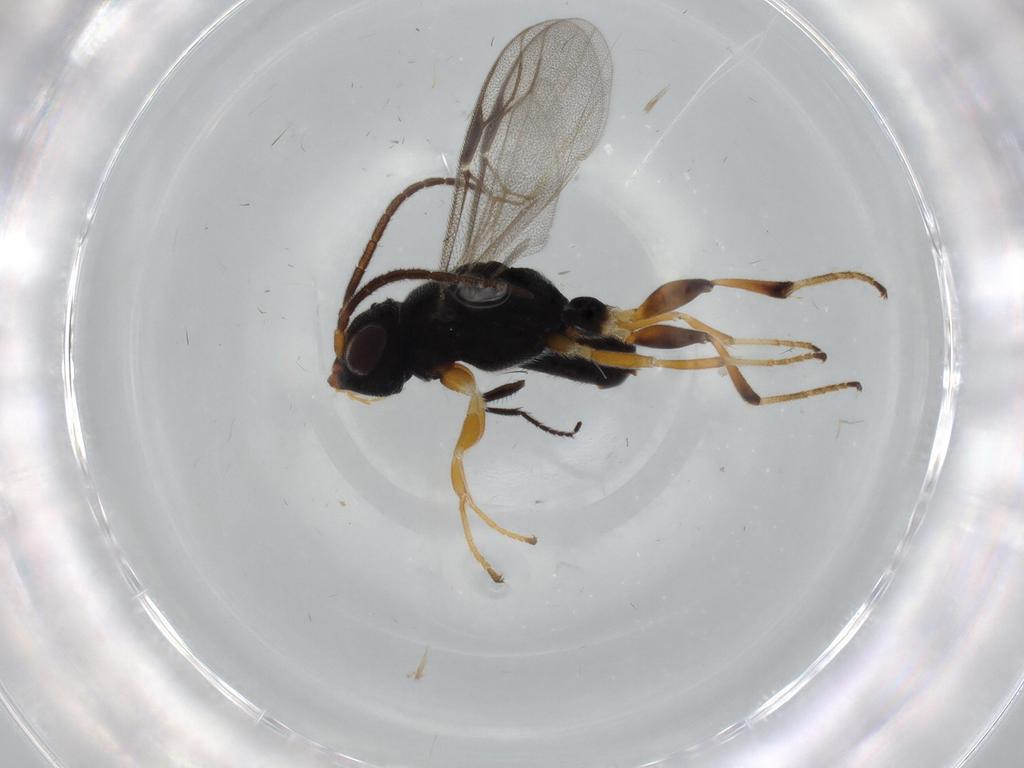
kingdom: Animalia
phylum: Arthropoda
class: Insecta
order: Hymenoptera
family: Dryinidae
